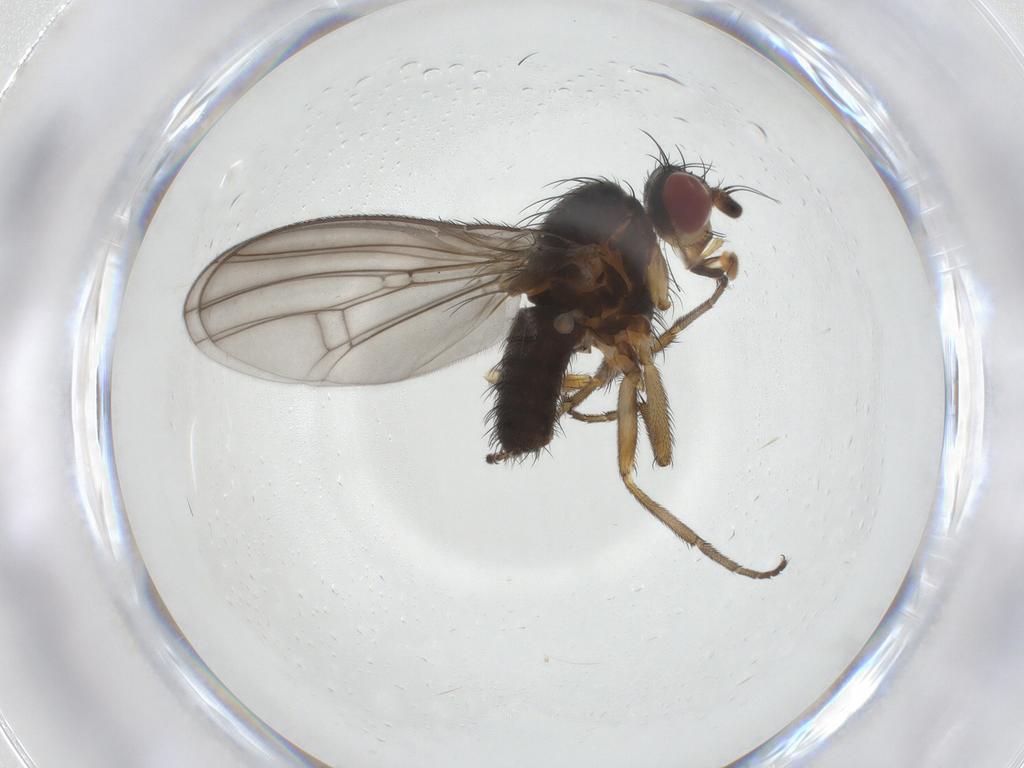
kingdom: Animalia
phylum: Arthropoda
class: Insecta
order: Diptera
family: Heleomyzidae
